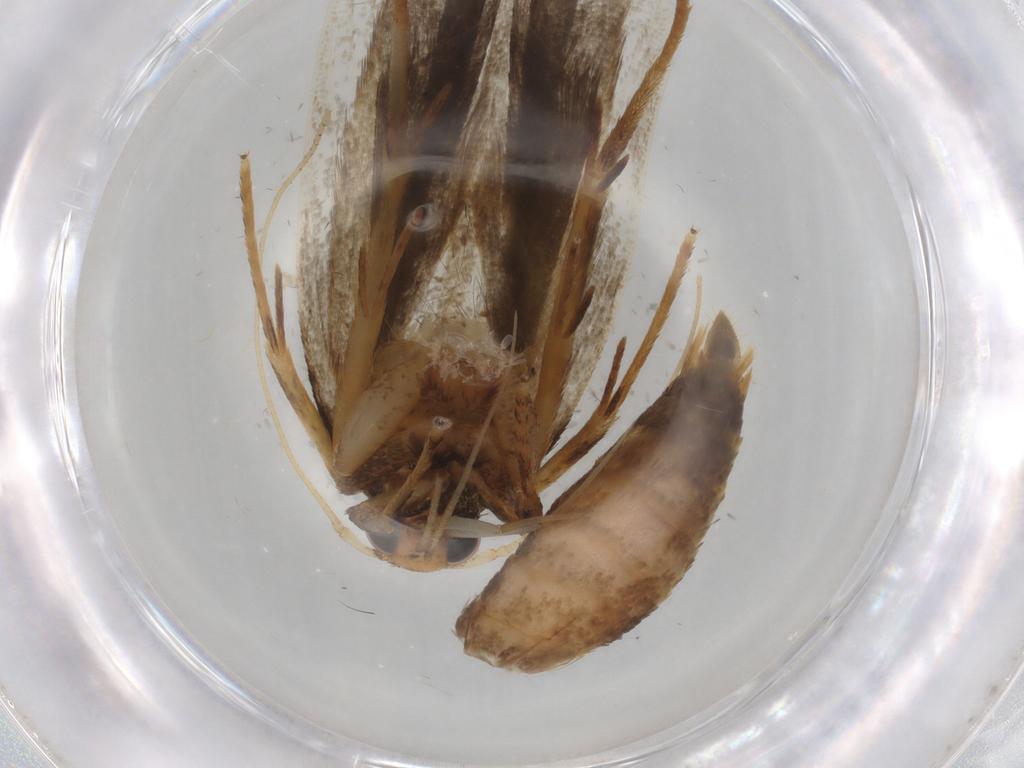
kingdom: Animalia
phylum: Arthropoda
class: Insecta
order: Lepidoptera
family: Autostichidae
